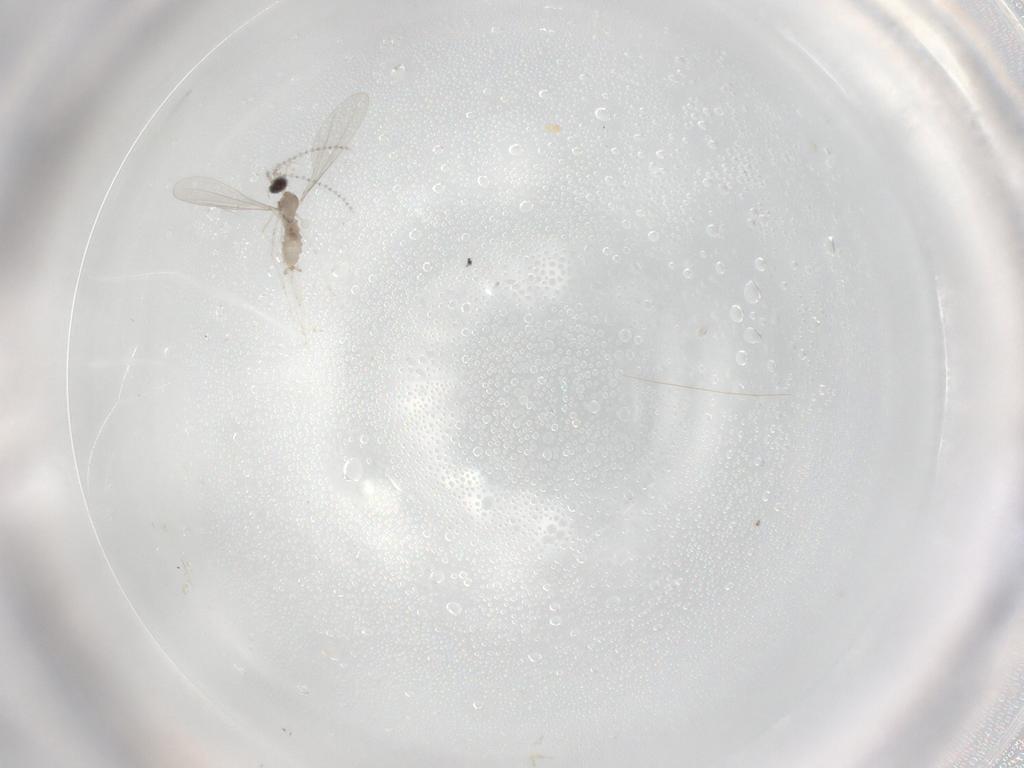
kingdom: Animalia
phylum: Arthropoda
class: Insecta
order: Diptera
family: Cecidomyiidae
